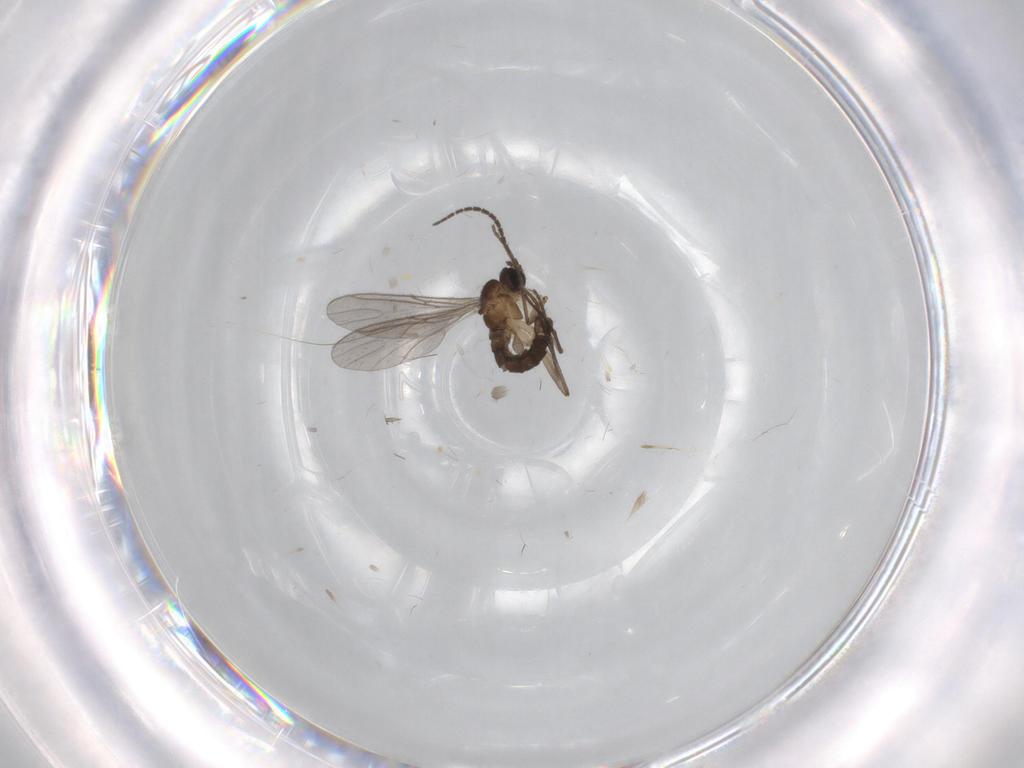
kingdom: Animalia
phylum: Arthropoda
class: Insecta
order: Diptera
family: Sciaridae
